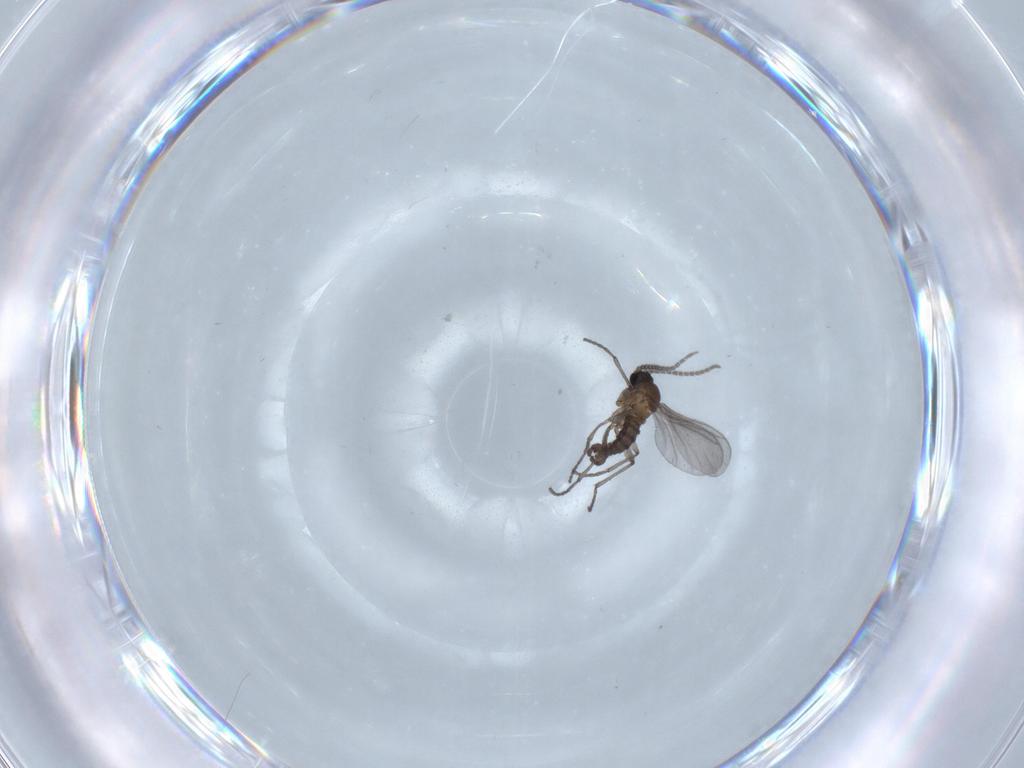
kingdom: Animalia
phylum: Arthropoda
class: Insecta
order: Diptera
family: Sciaridae
